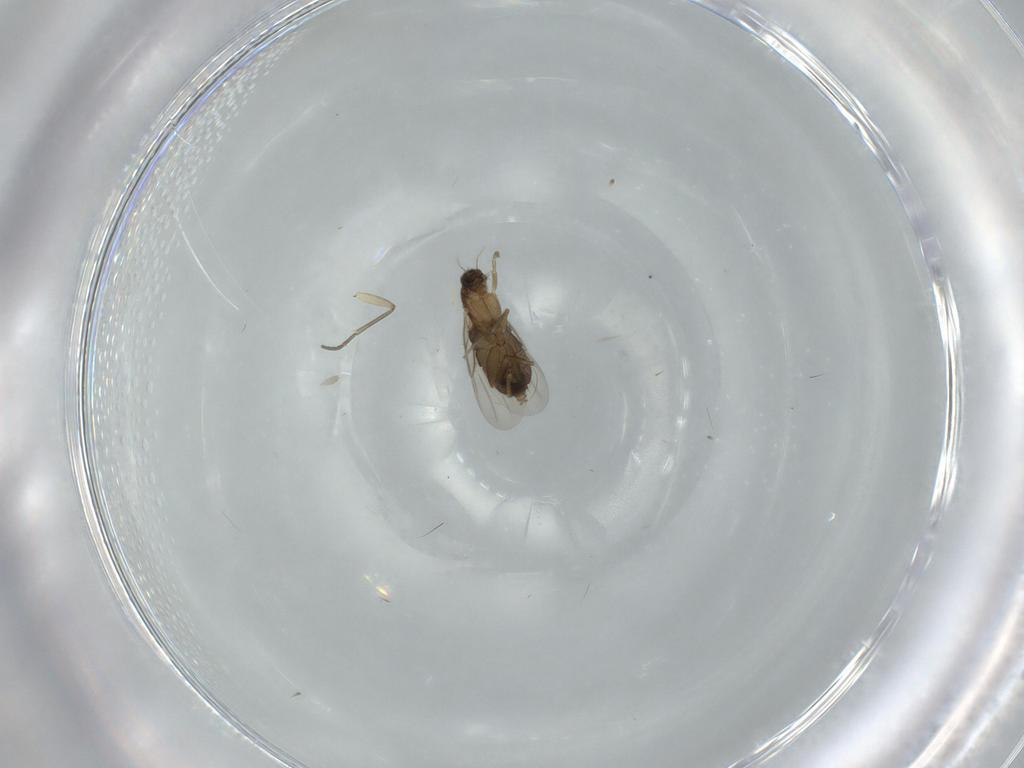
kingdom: Animalia
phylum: Arthropoda
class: Insecta
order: Diptera
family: Phoridae
